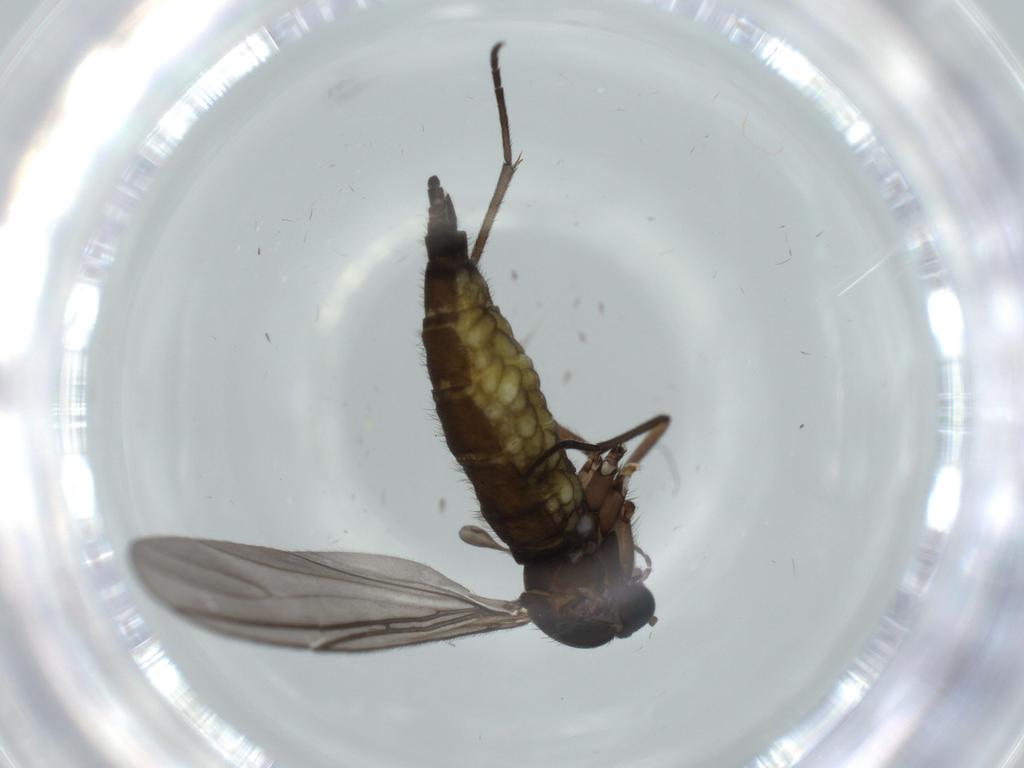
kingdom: Animalia
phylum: Arthropoda
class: Insecta
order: Diptera
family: Sciaridae
